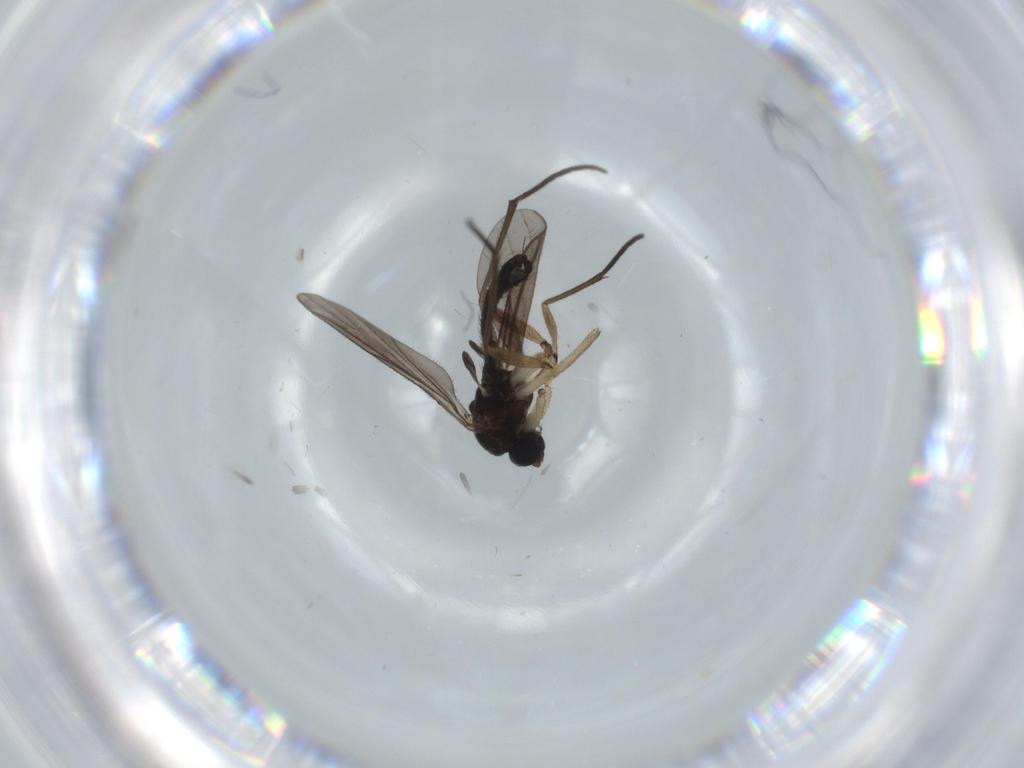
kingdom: Animalia
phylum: Arthropoda
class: Insecta
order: Diptera
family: Sciaridae
